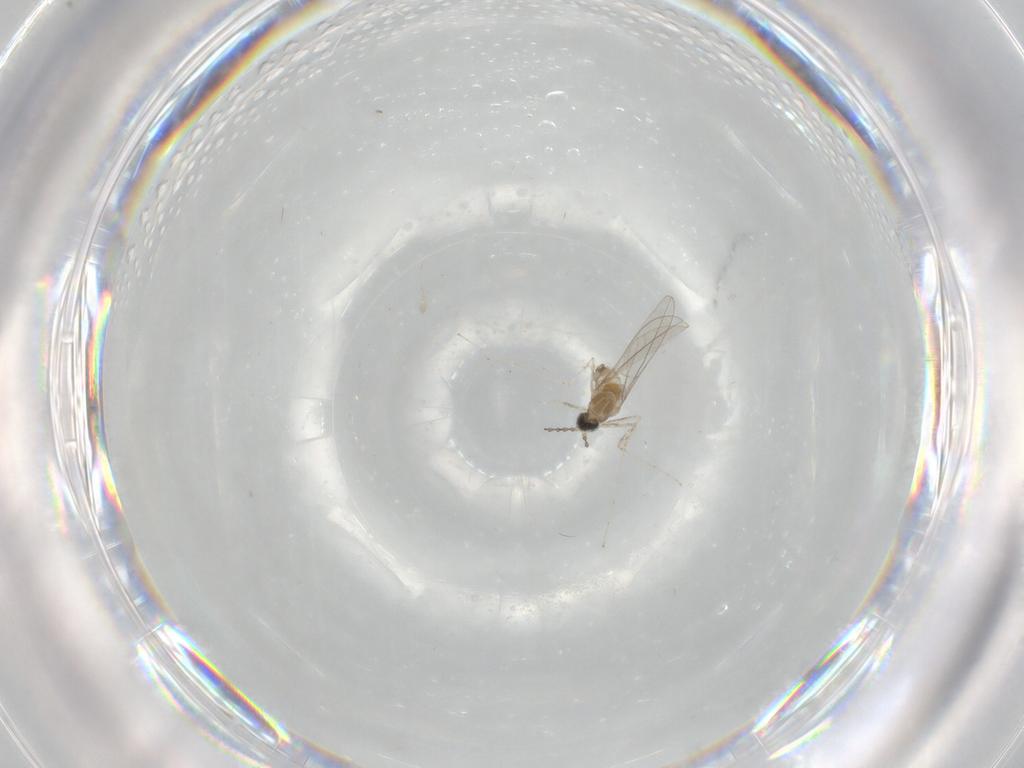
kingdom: Animalia
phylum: Arthropoda
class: Insecta
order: Diptera
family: Cecidomyiidae
